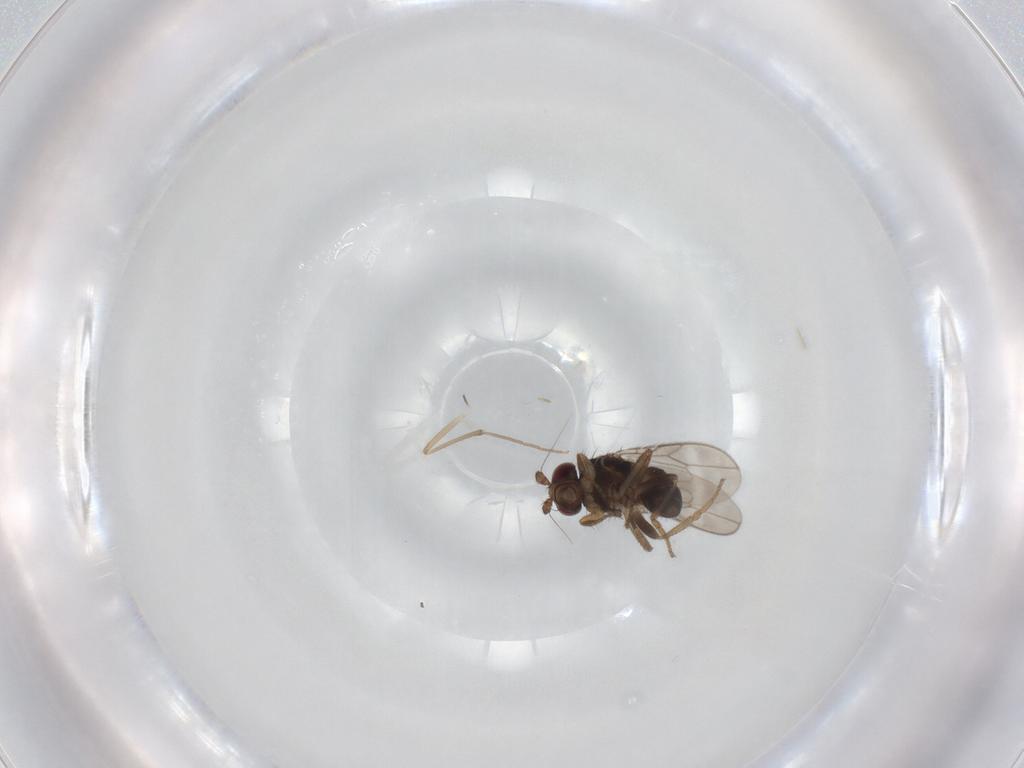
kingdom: Animalia
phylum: Arthropoda
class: Insecta
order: Diptera
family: Sphaeroceridae
